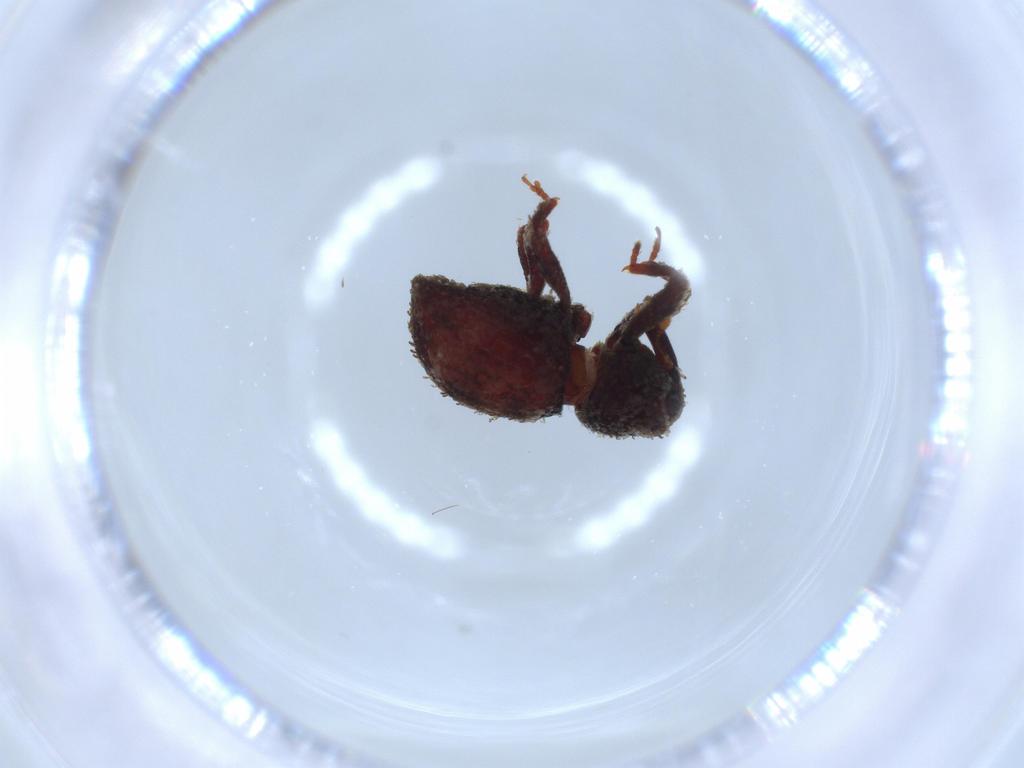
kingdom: Animalia
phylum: Arthropoda
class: Insecta
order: Coleoptera
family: Curculionidae
